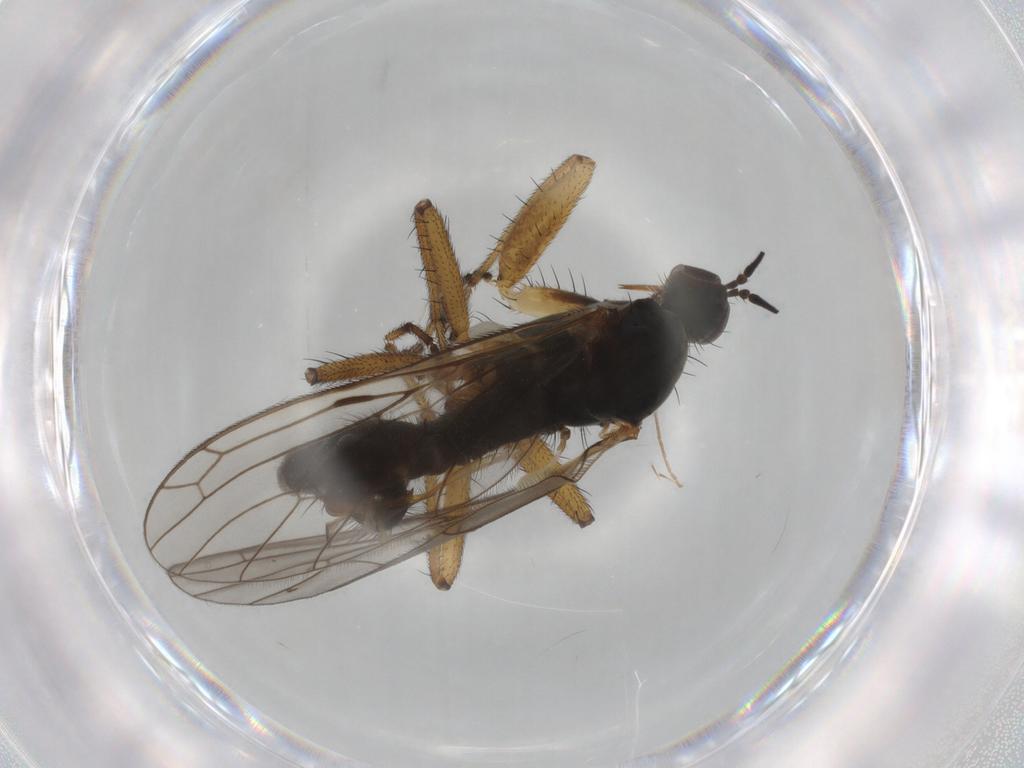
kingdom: Animalia
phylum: Arthropoda
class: Insecta
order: Diptera
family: Empididae
